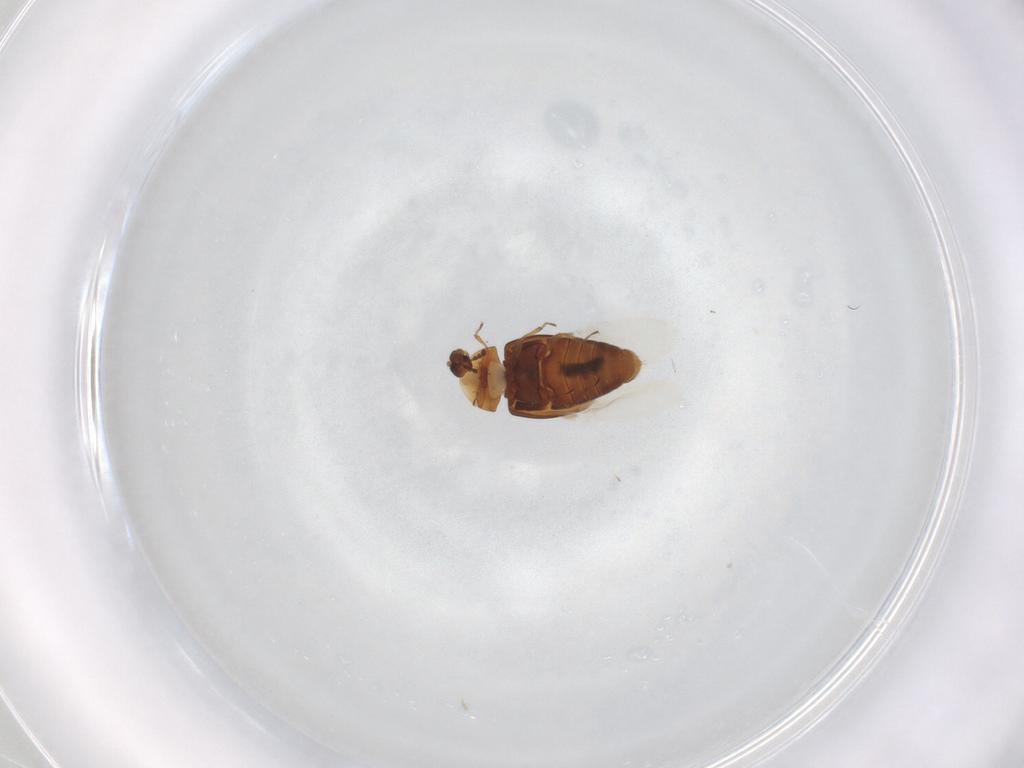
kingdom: Animalia
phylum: Arthropoda
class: Insecta
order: Coleoptera
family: Corylophidae
